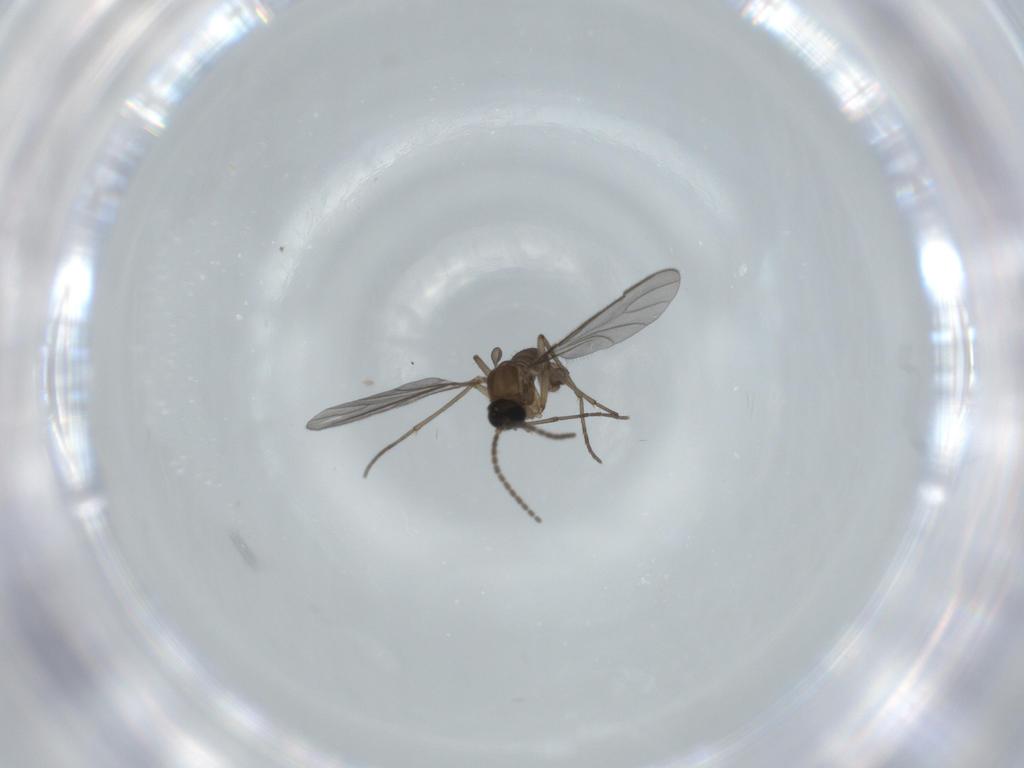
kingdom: Animalia
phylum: Arthropoda
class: Insecta
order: Diptera
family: Sciaridae
